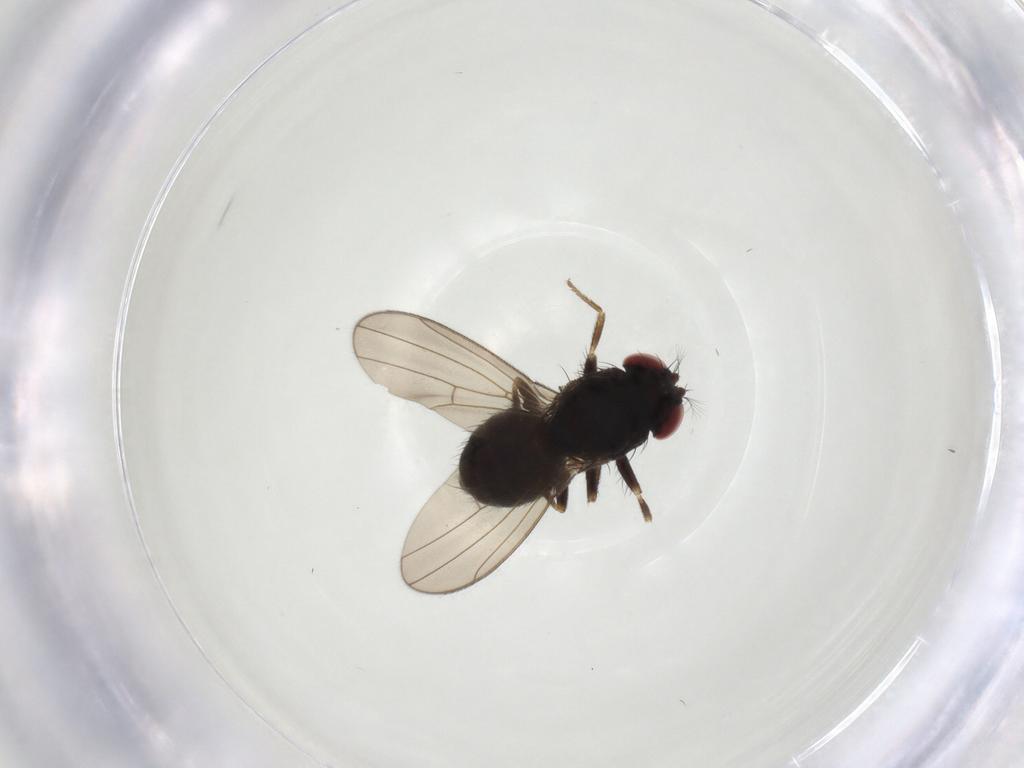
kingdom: Animalia
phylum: Arthropoda
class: Insecta
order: Diptera
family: Drosophilidae
